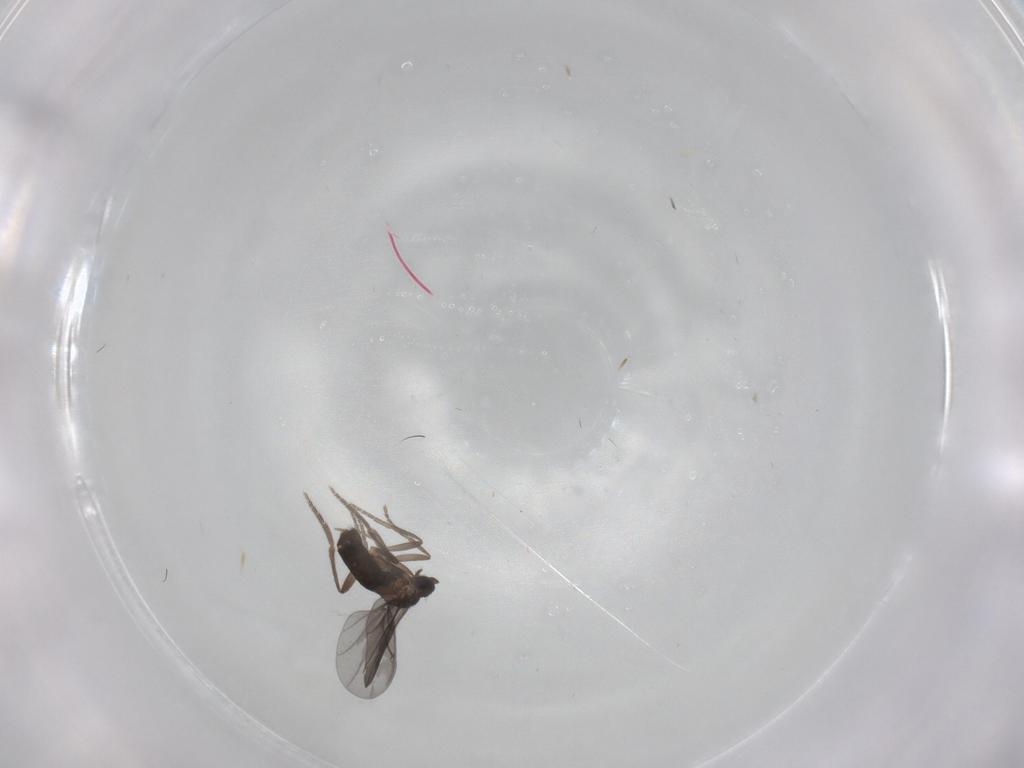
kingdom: Animalia
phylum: Arthropoda
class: Insecta
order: Diptera
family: Phoridae
